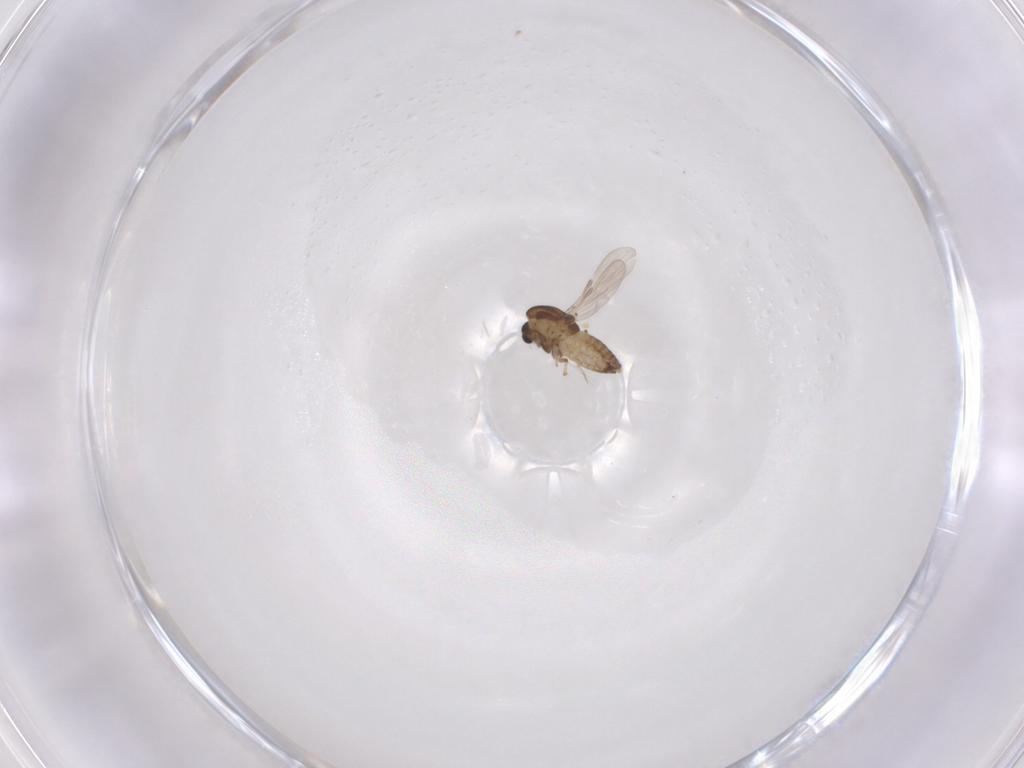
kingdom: Animalia
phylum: Arthropoda
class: Insecta
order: Diptera
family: Chironomidae
